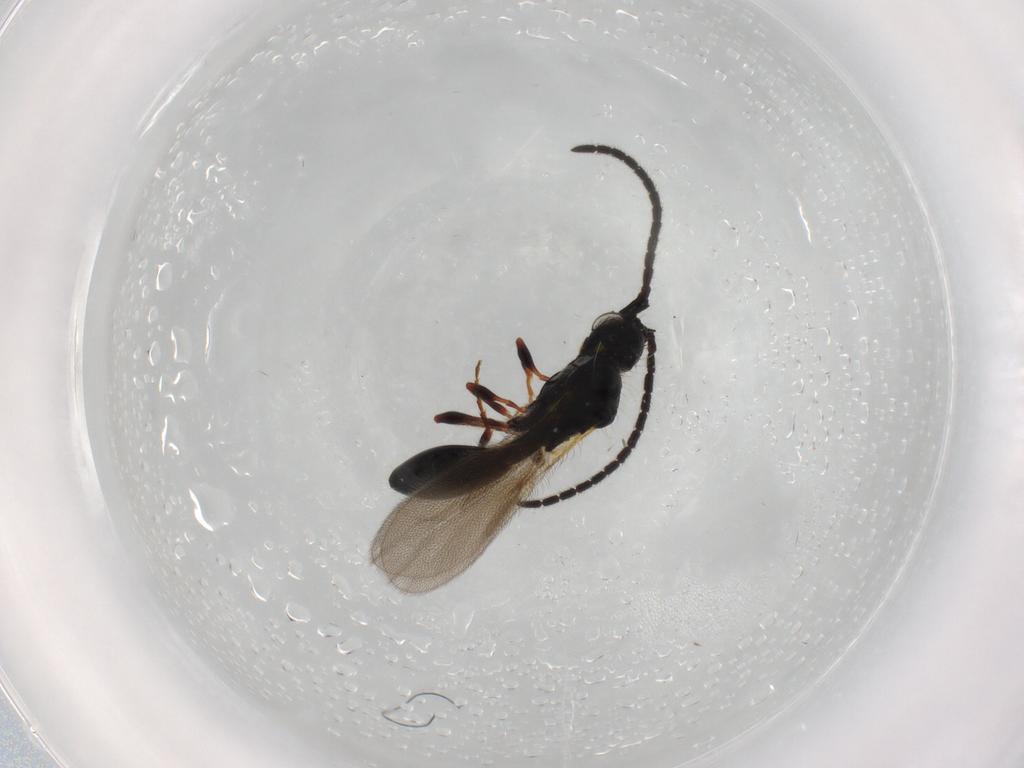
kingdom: Animalia
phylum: Arthropoda
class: Insecta
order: Hymenoptera
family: Diapriidae
